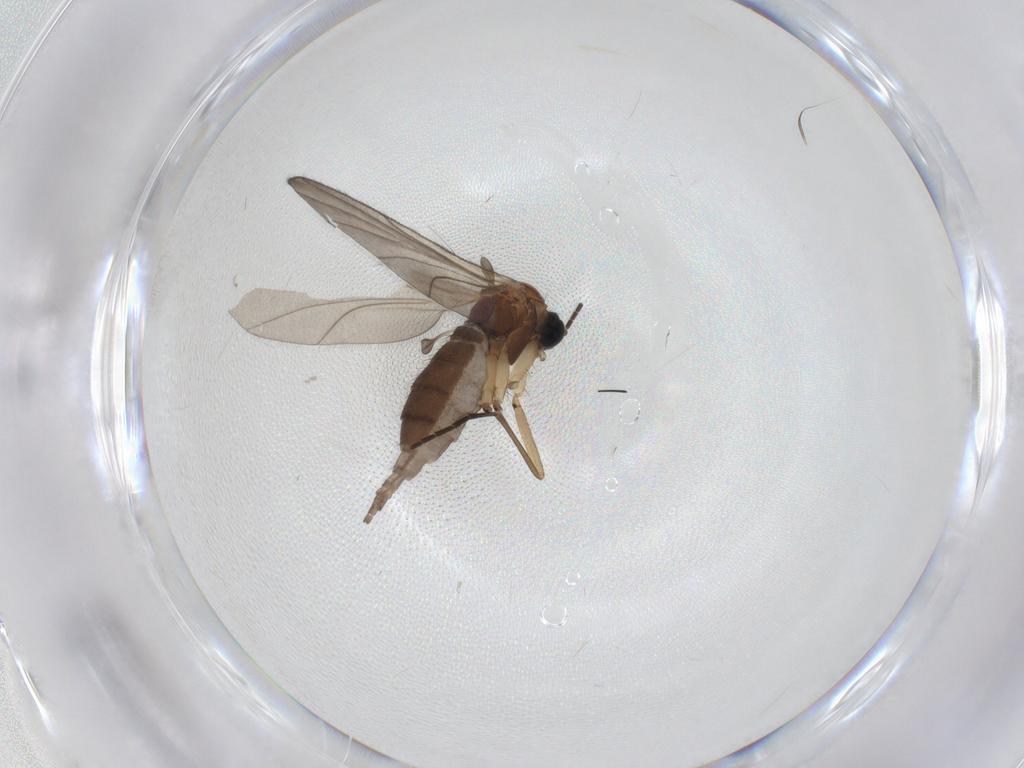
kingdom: Animalia
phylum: Arthropoda
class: Insecta
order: Diptera
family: Sciaridae
